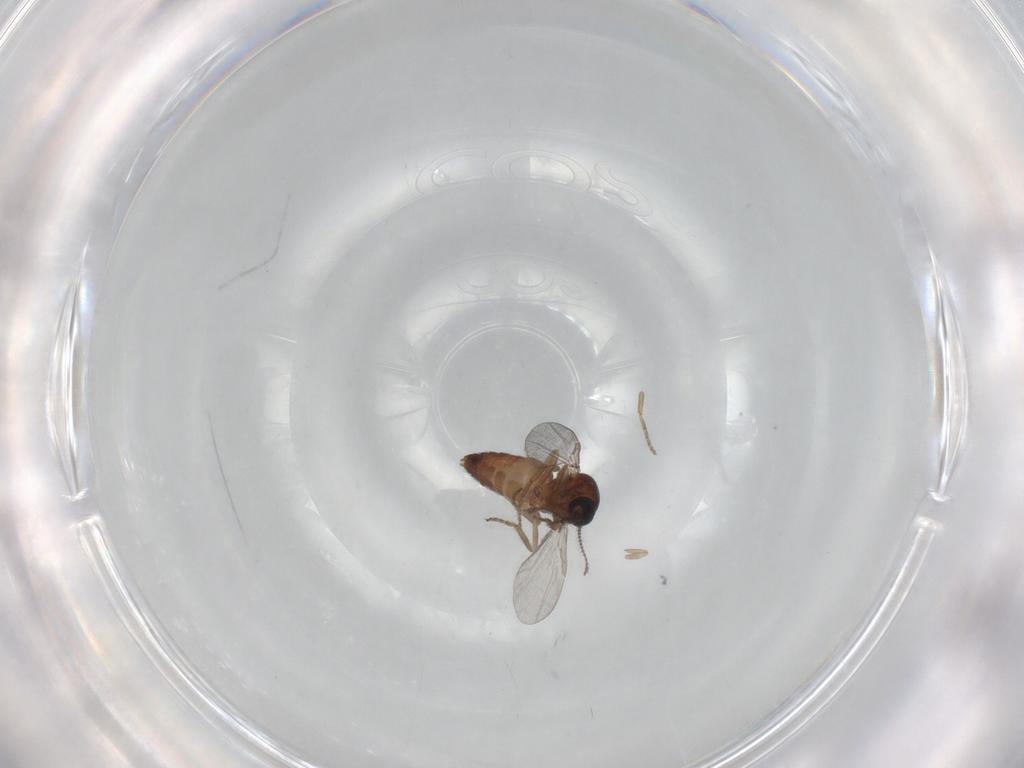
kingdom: Animalia
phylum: Arthropoda
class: Insecta
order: Diptera
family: Ceratopogonidae
